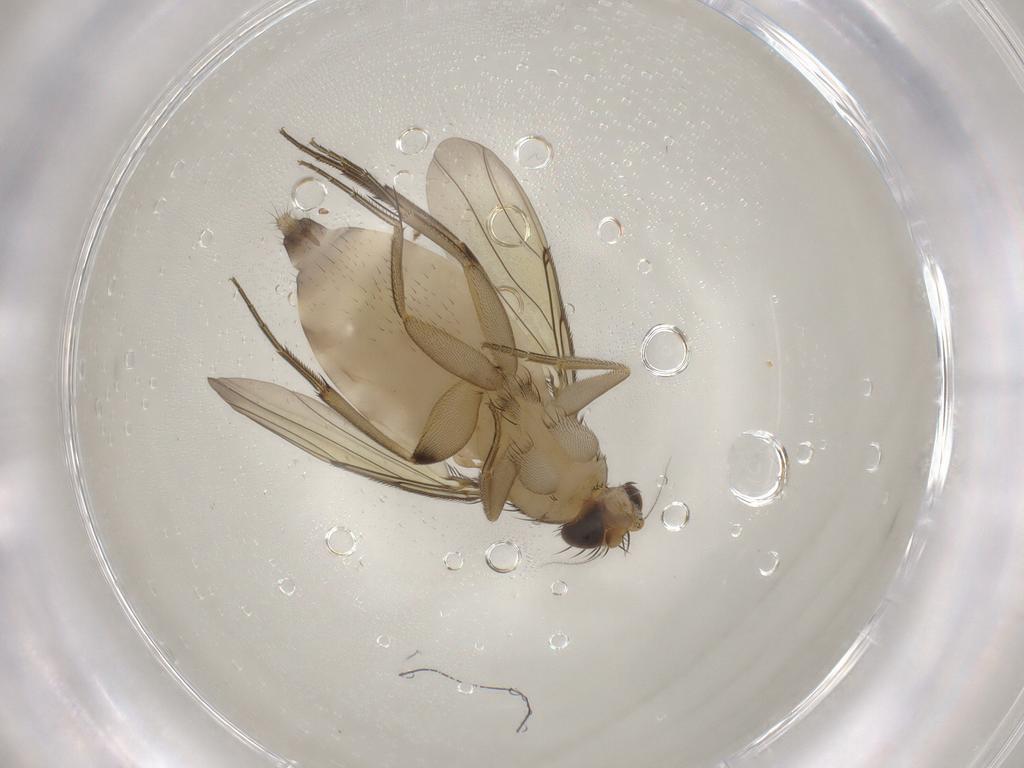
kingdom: Animalia
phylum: Arthropoda
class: Insecta
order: Diptera
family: Phoridae
